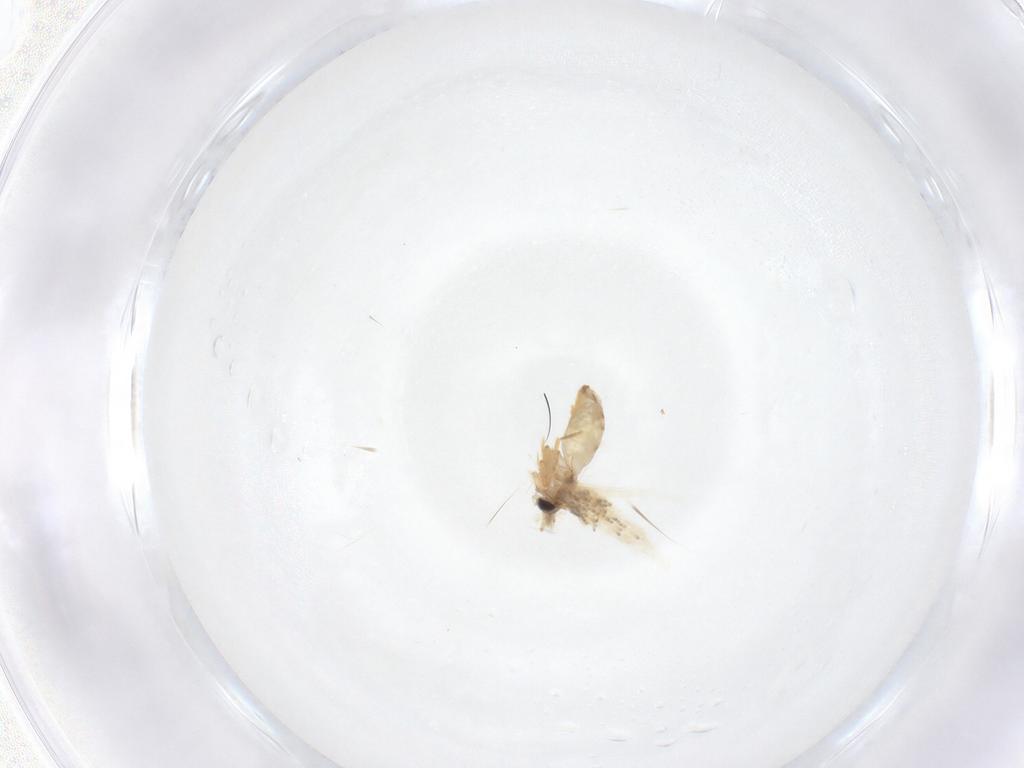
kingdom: Animalia
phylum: Arthropoda
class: Insecta
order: Lepidoptera
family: Crambidae
